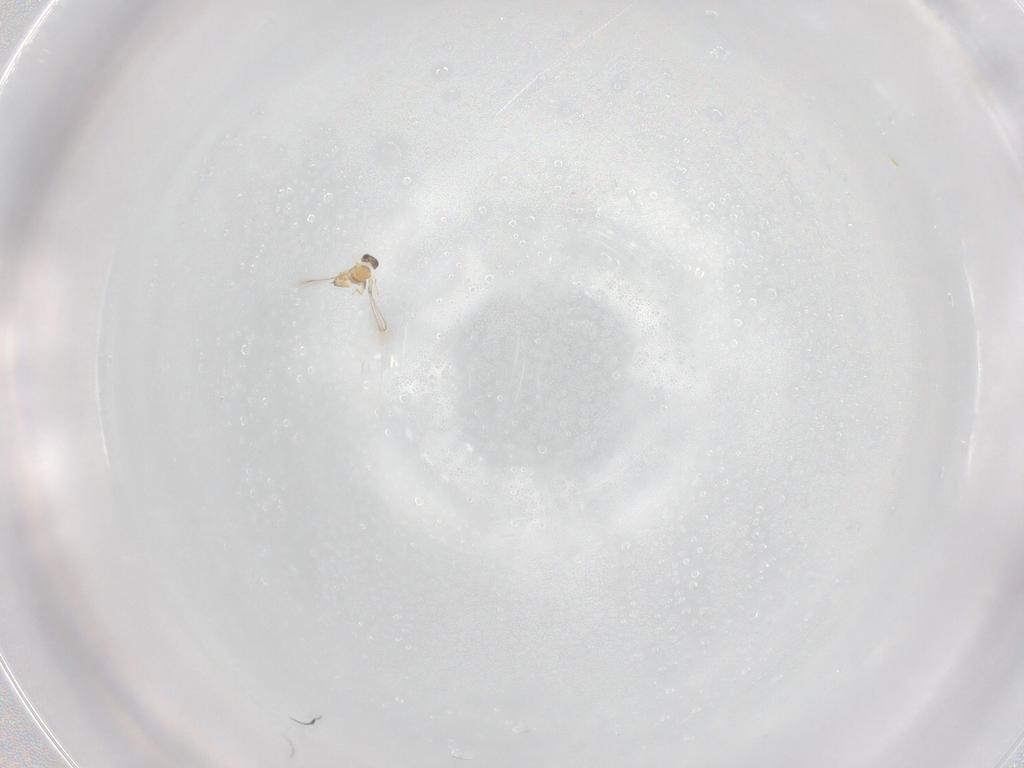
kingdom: Animalia
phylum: Arthropoda
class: Insecta
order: Hymenoptera
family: Mymaridae
